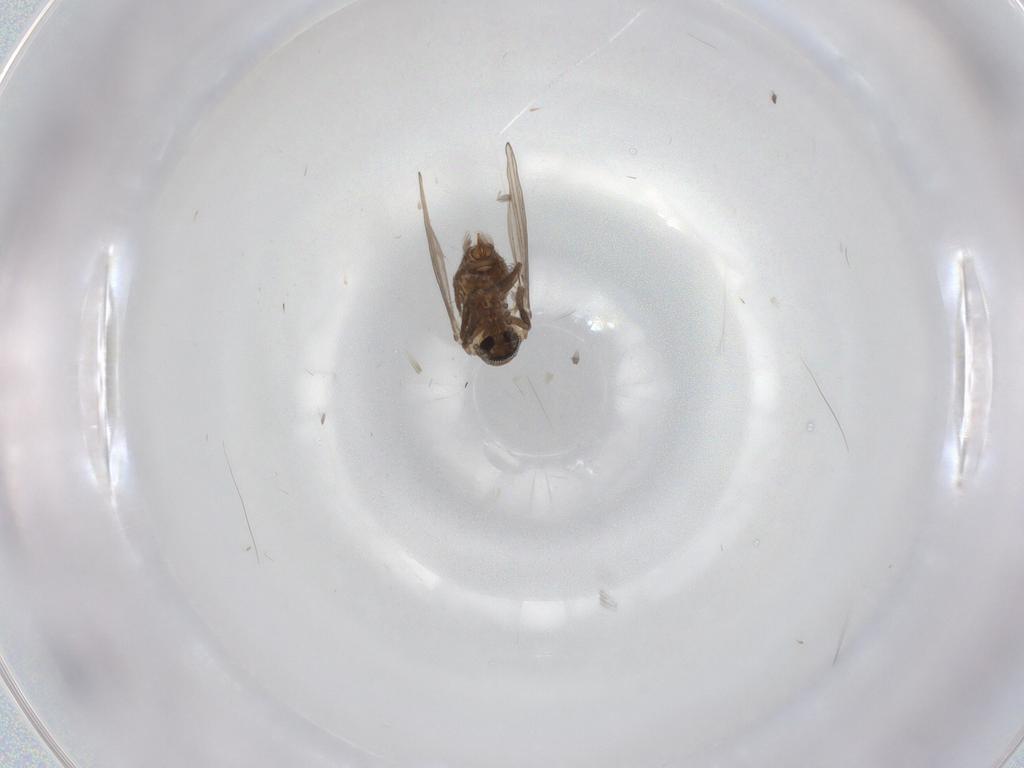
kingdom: Animalia
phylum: Arthropoda
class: Insecta
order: Diptera
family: Psychodidae
